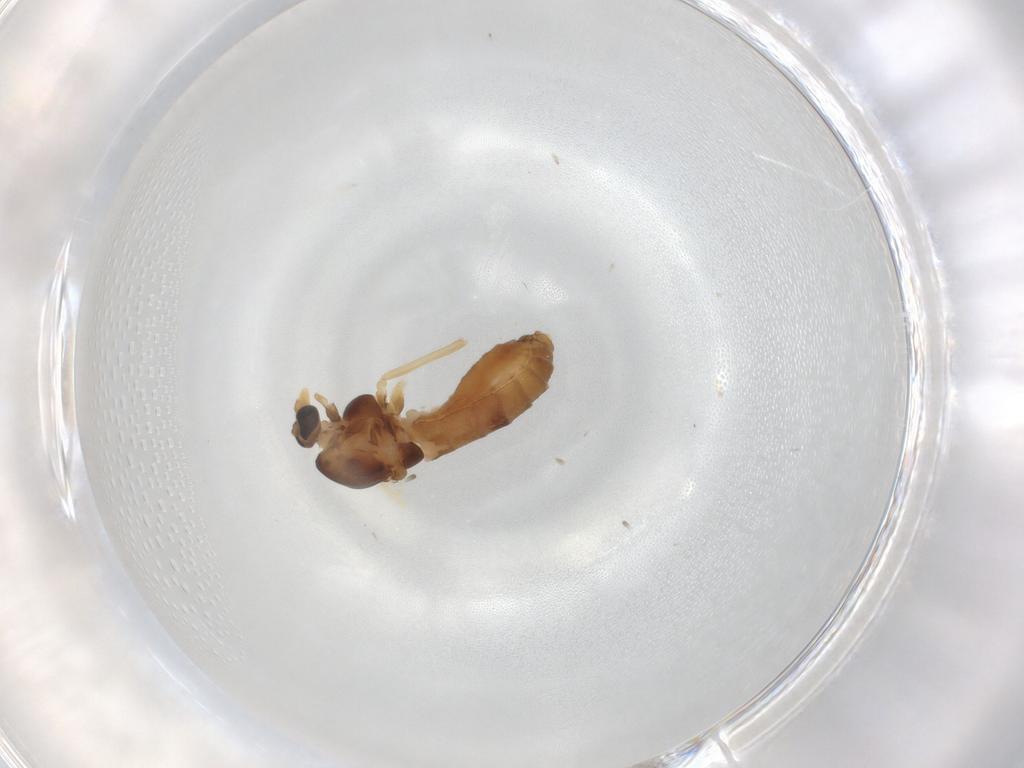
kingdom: Animalia
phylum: Arthropoda
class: Insecta
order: Diptera
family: Chironomidae
